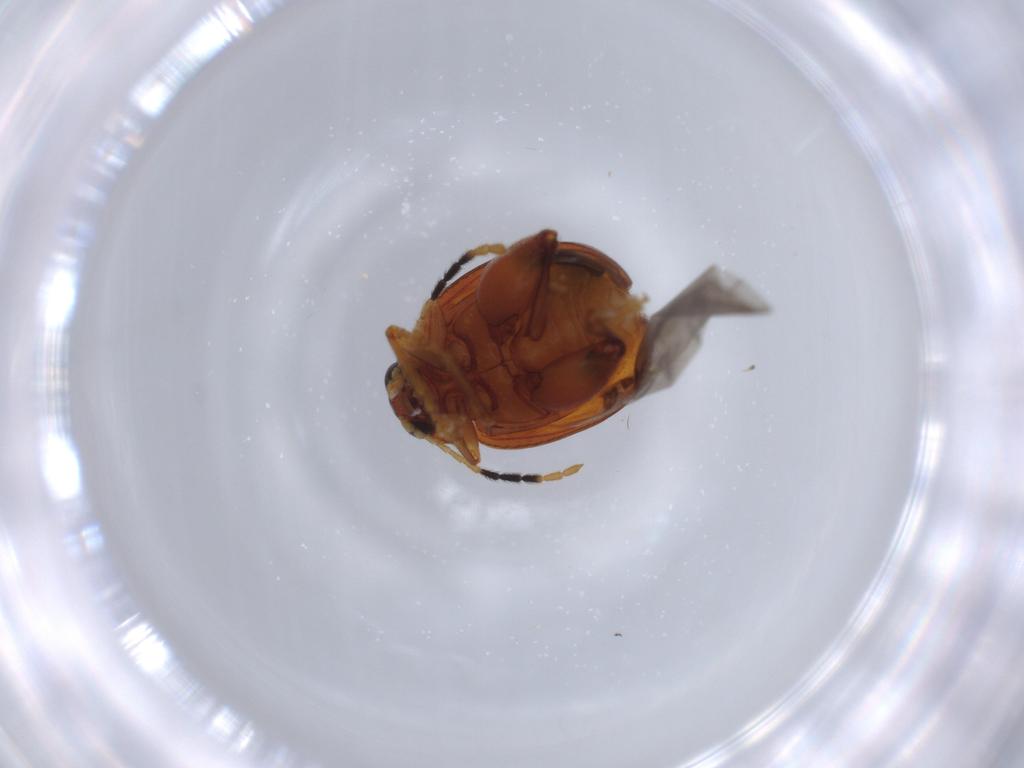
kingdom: Animalia
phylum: Arthropoda
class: Insecta
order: Coleoptera
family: Chrysomelidae
